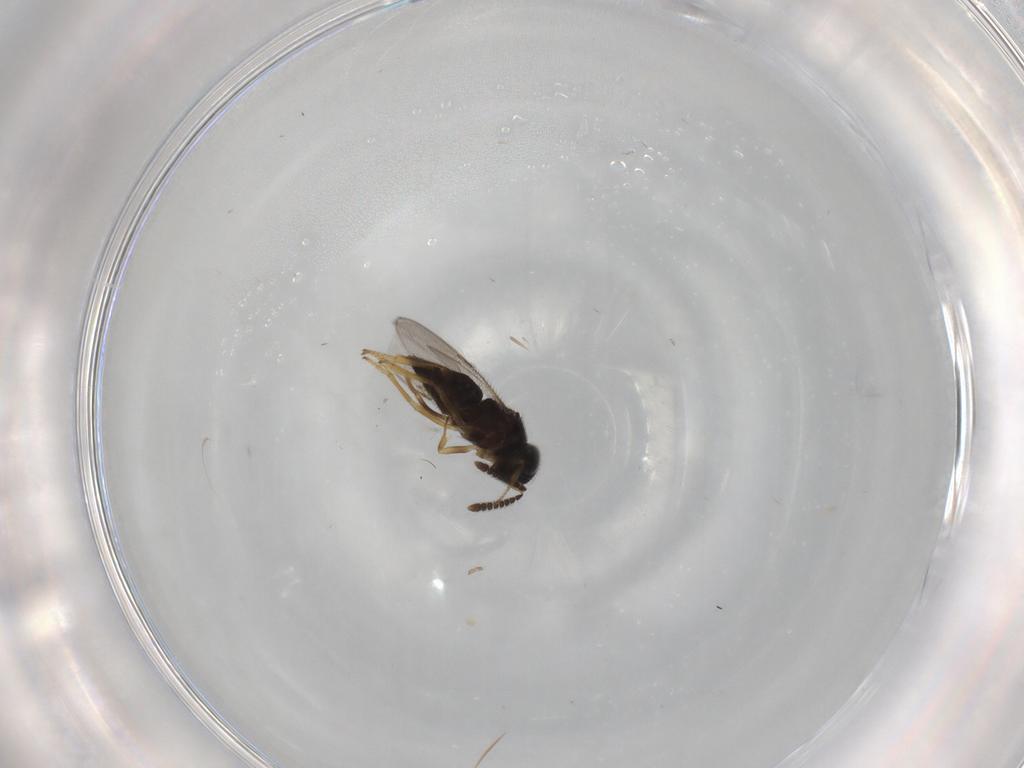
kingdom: Animalia
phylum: Arthropoda
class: Insecta
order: Hymenoptera
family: Encyrtidae
